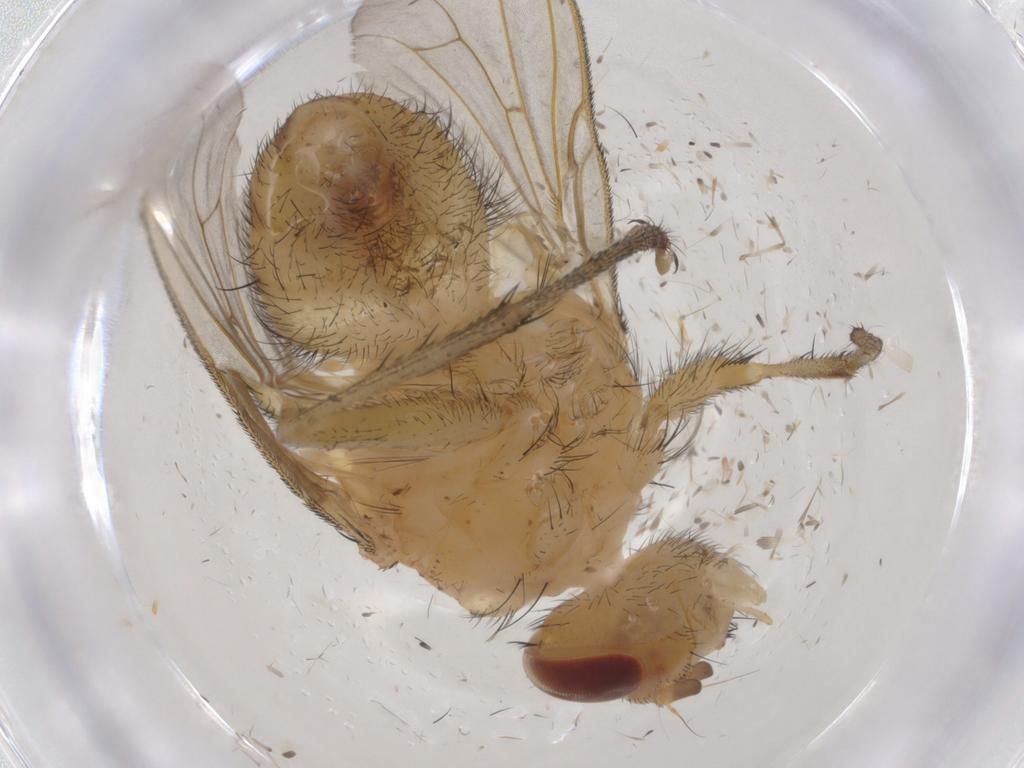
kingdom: Animalia
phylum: Arthropoda
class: Insecta
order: Diptera
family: Tachinidae
